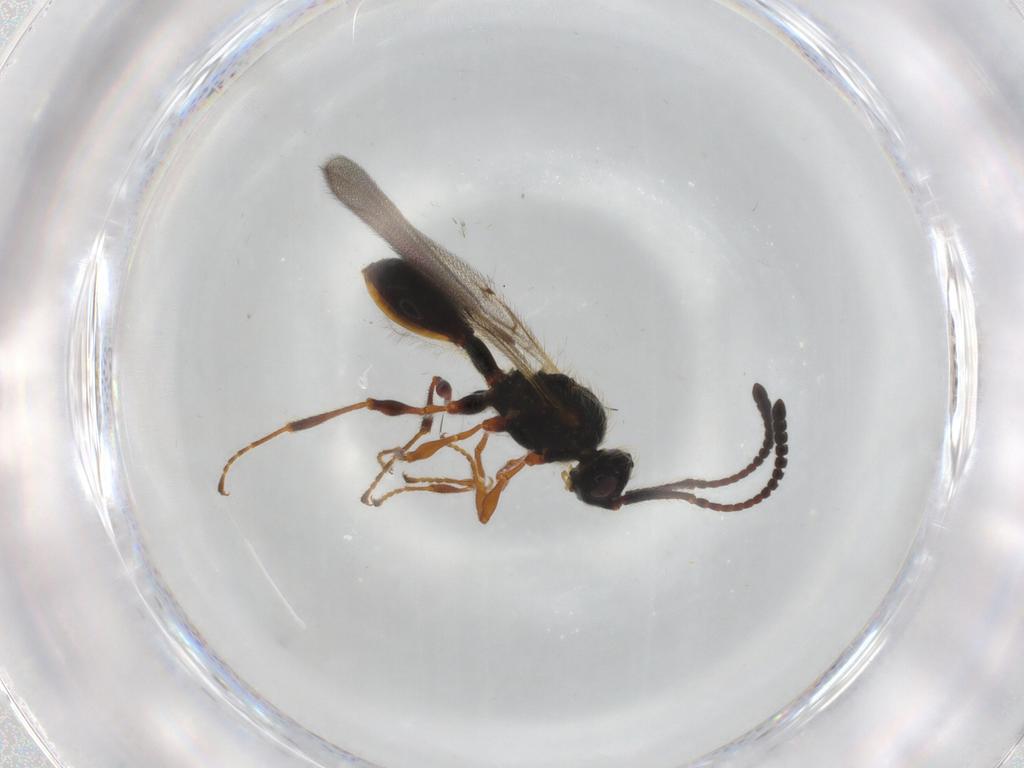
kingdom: Animalia
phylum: Arthropoda
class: Insecta
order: Hymenoptera
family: Diapriidae
